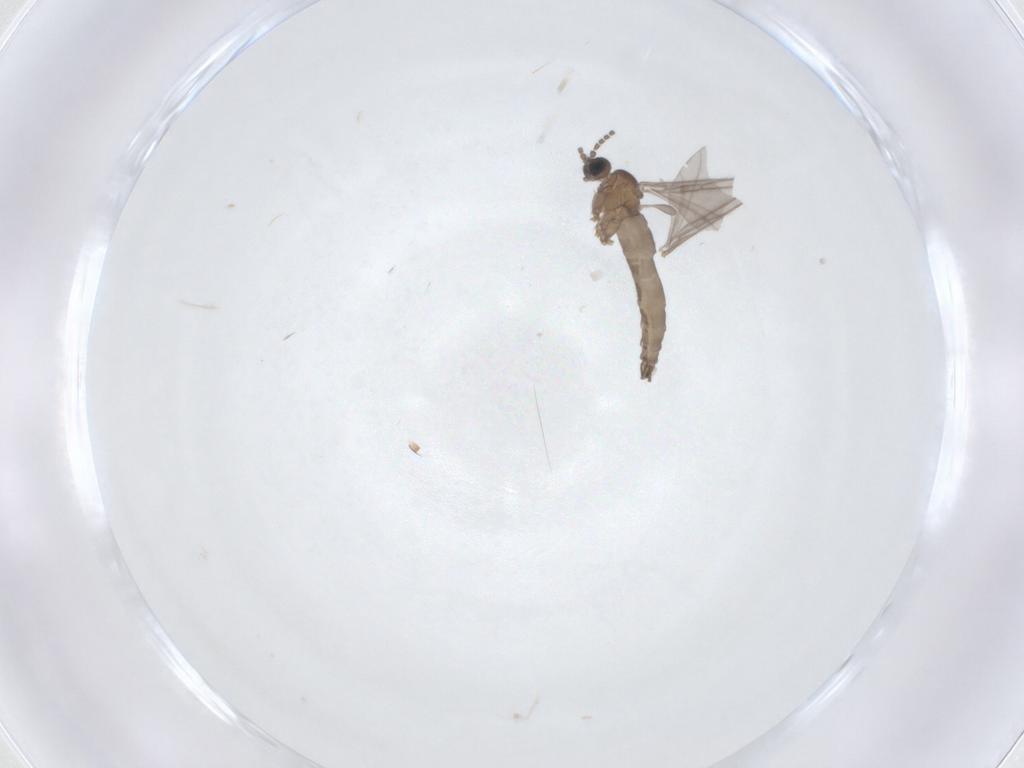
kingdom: Animalia
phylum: Arthropoda
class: Insecta
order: Diptera
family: Sciaridae
